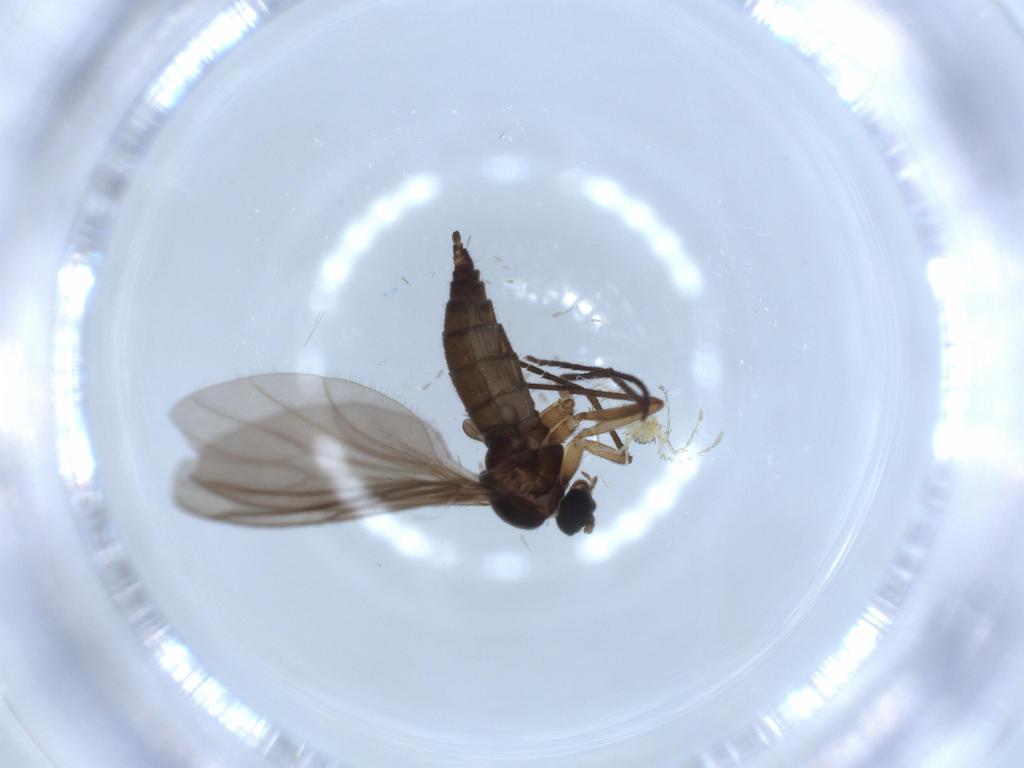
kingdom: Animalia
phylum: Arthropoda
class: Insecta
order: Diptera
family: Sciaridae
